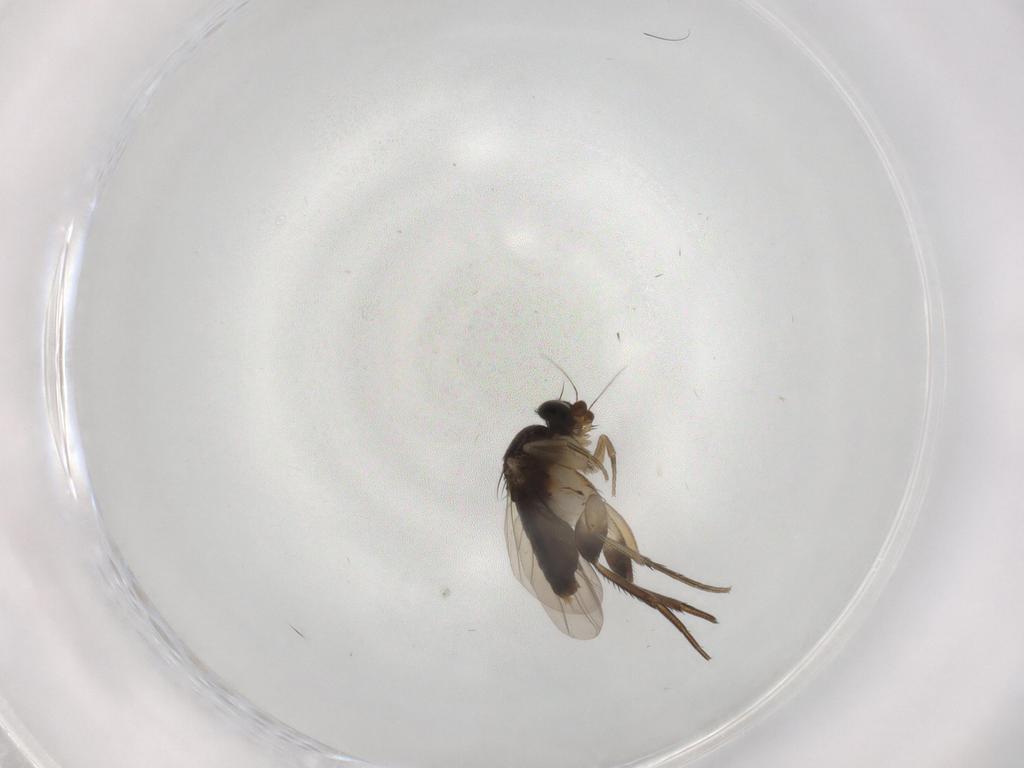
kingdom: Animalia
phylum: Arthropoda
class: Insecta
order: Diptera
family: Phoridae
